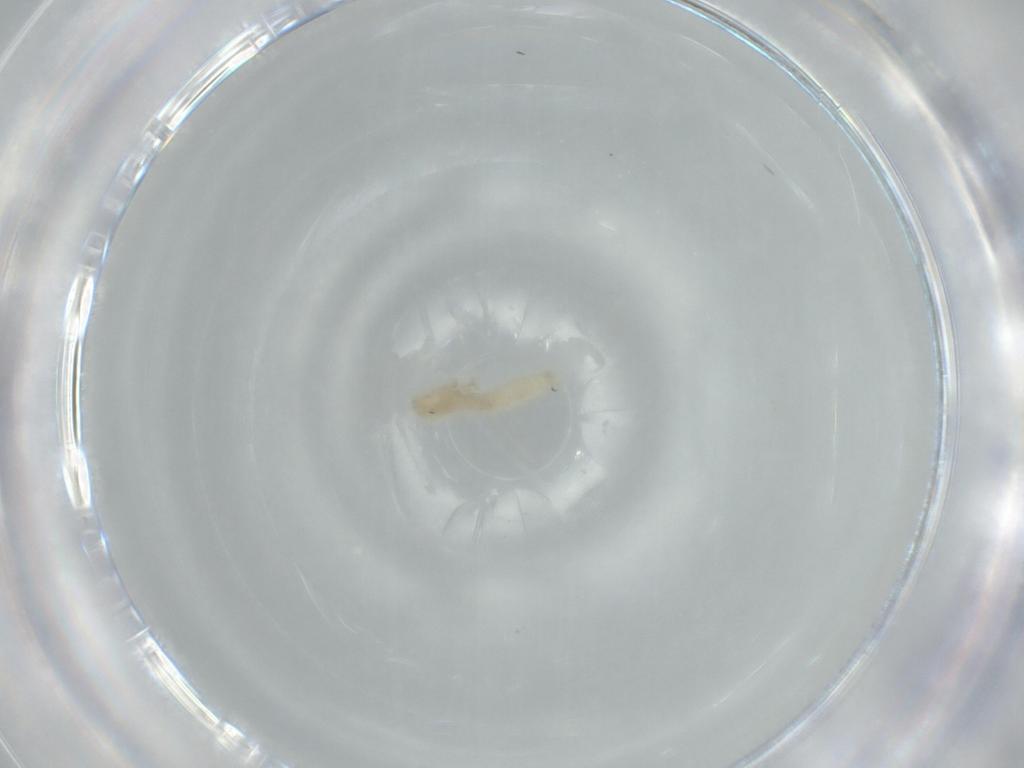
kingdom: Animalia
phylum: Arthropoda
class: Insecta
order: Diptera
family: Cecidomyiidae
